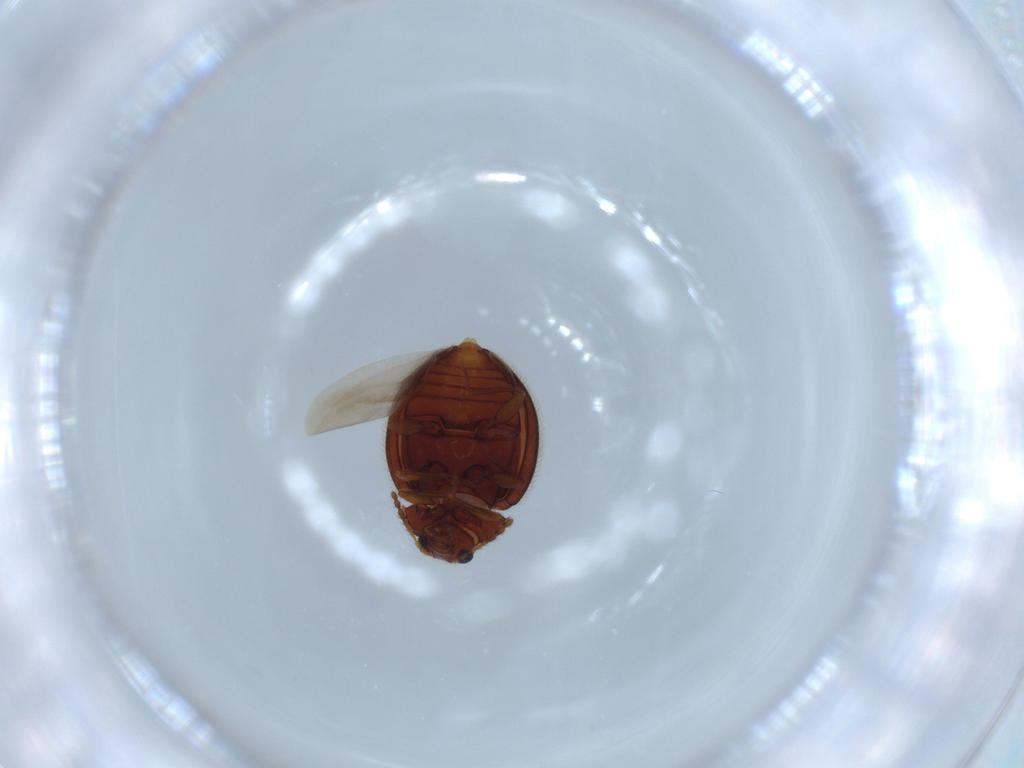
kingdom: Animalia
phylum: Arthropoda
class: Insecta
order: Coleoptera
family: Anamorphidae
